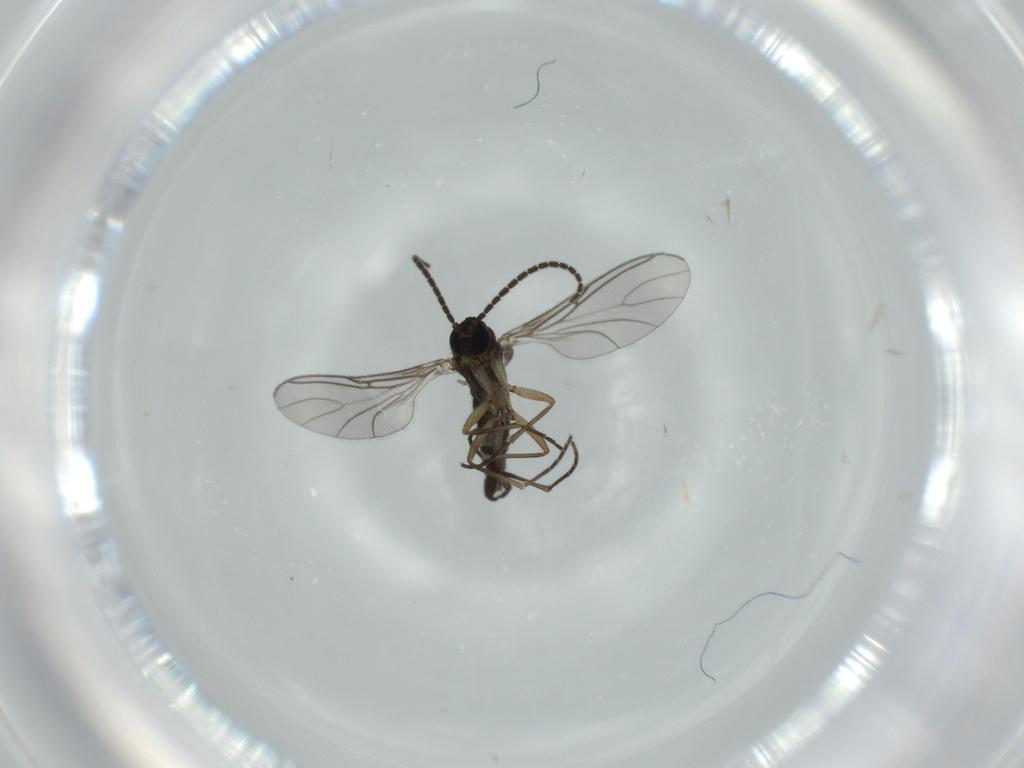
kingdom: Animalia
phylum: Arthropoda
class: Insecta
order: Diptera
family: Sciaridae
